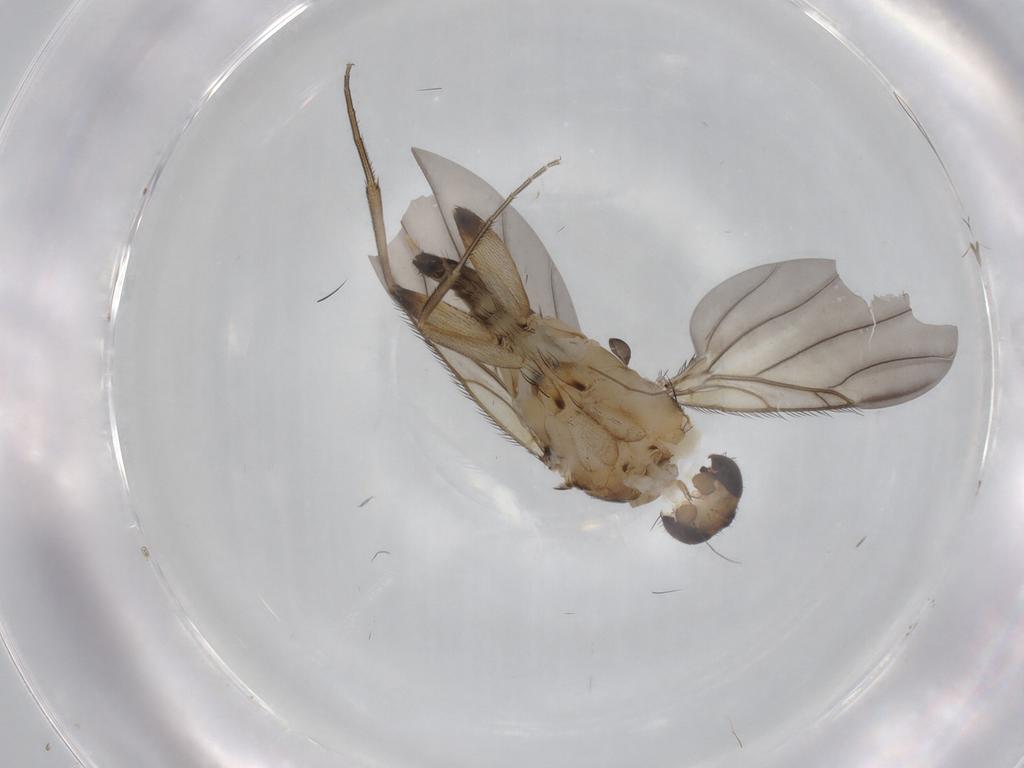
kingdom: Animalia
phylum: Arthropoda
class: Insecta
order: Diptera
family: Phoridae
